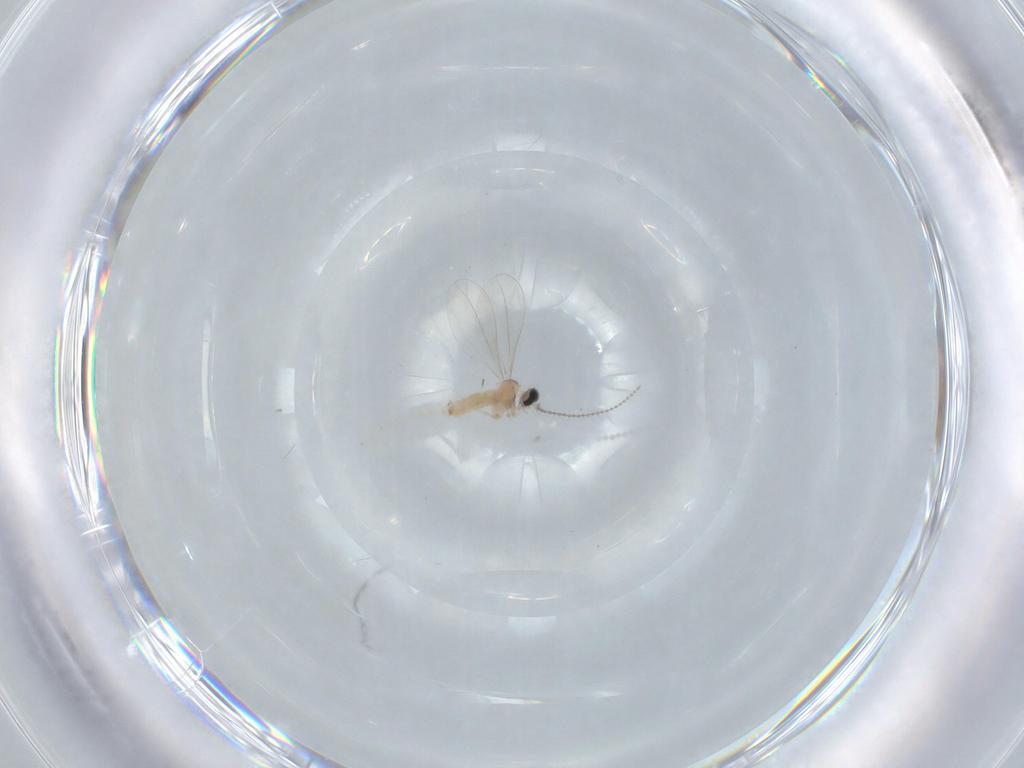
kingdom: Animalia
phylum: Arthropoda
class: Insecta
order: Diptera
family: Cecidomyiidae
